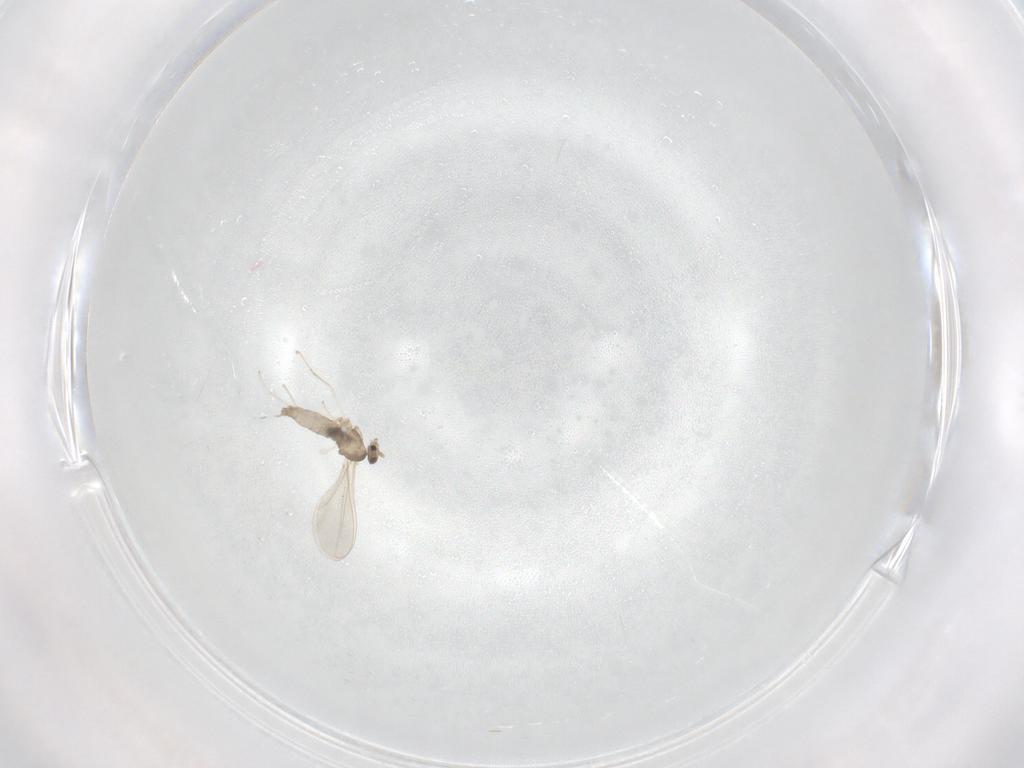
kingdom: Animalia
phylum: Arthropoda
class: Insecta
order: Diptera
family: Cecidomyiidae
